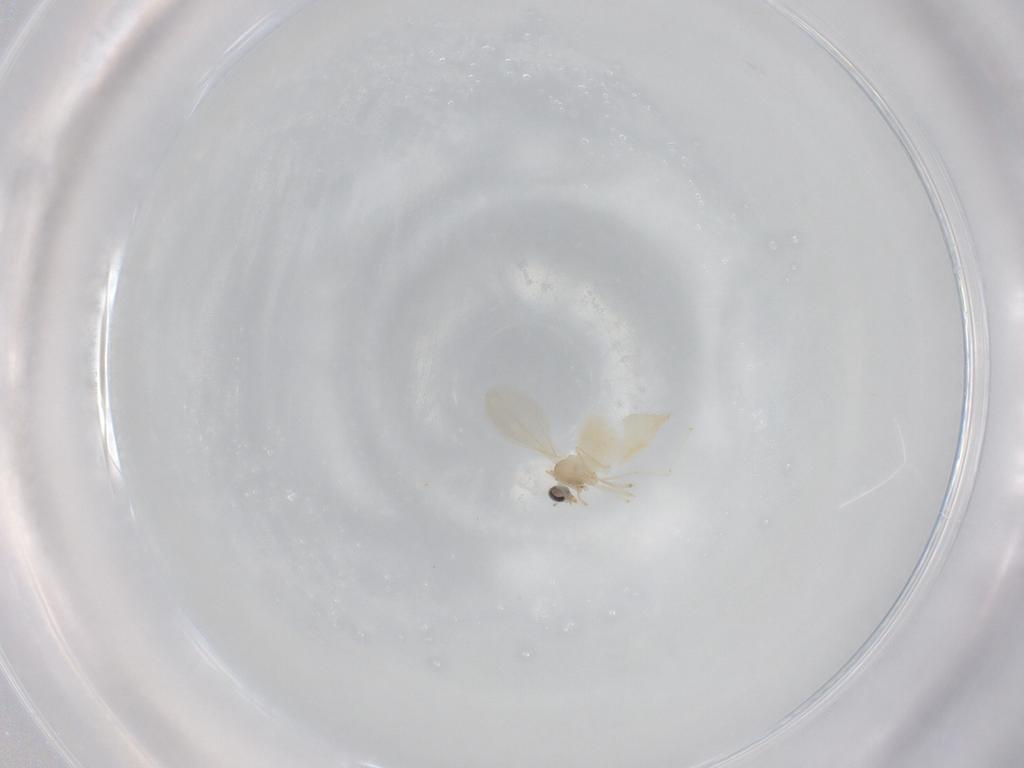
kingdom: Animalia
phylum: Arthropoda
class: Insecta
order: Diptera
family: Cecidomyiidae
